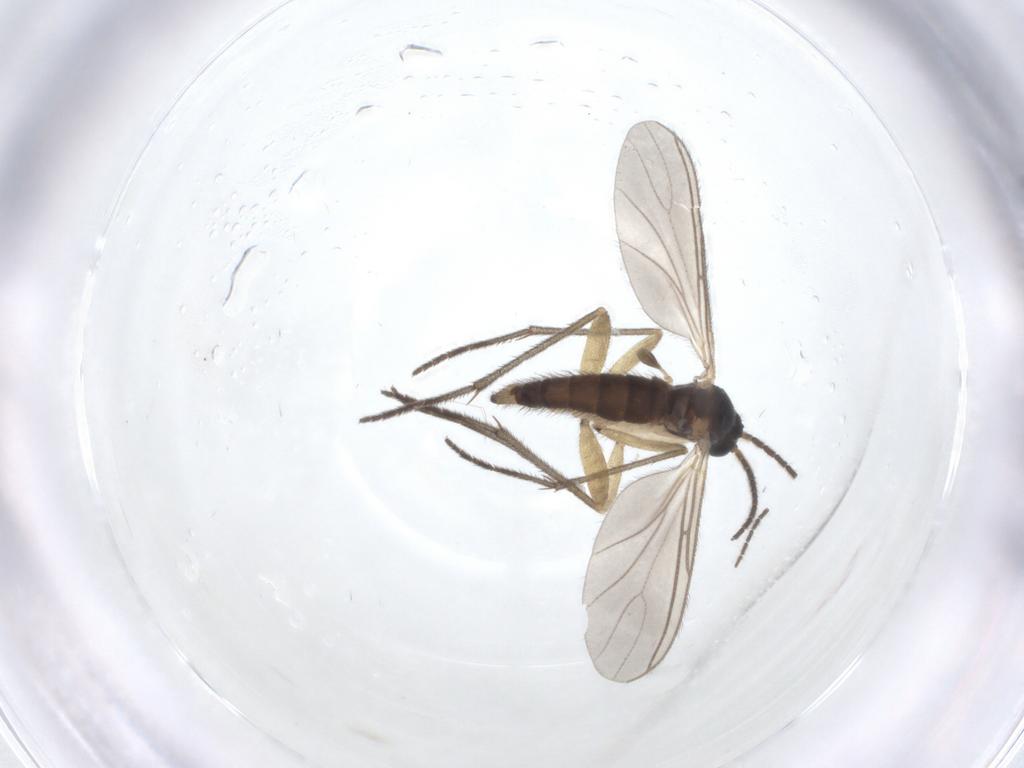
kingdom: Animalia
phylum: Arthropoda
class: Insecta
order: Diptera
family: Sciaridae
